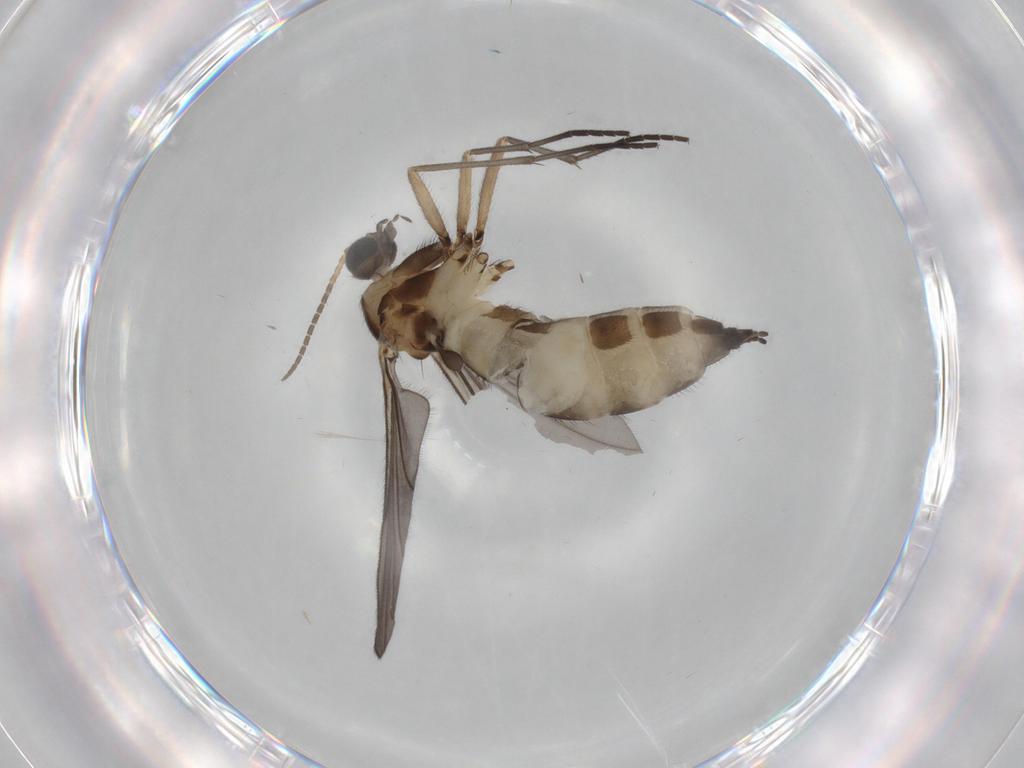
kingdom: Animalia
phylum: Arthropoda
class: Insecta
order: Diptera
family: Sciaridae
